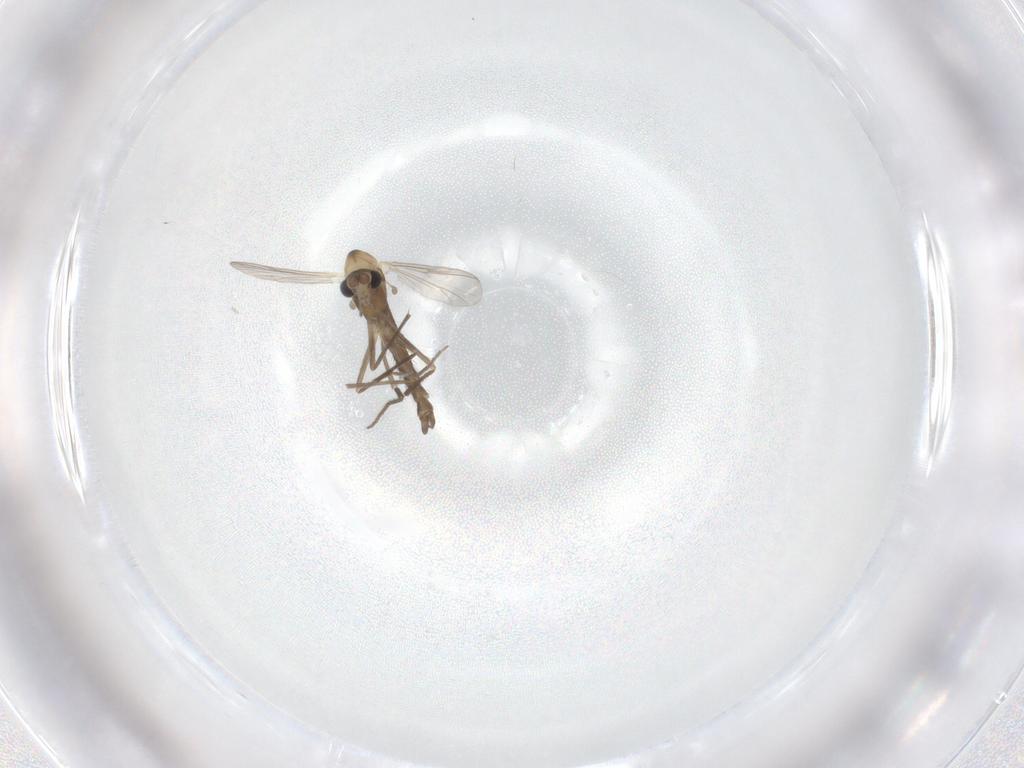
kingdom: Animalia
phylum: Arthropoda
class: Insecta
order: Diptera
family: Chironomidae
